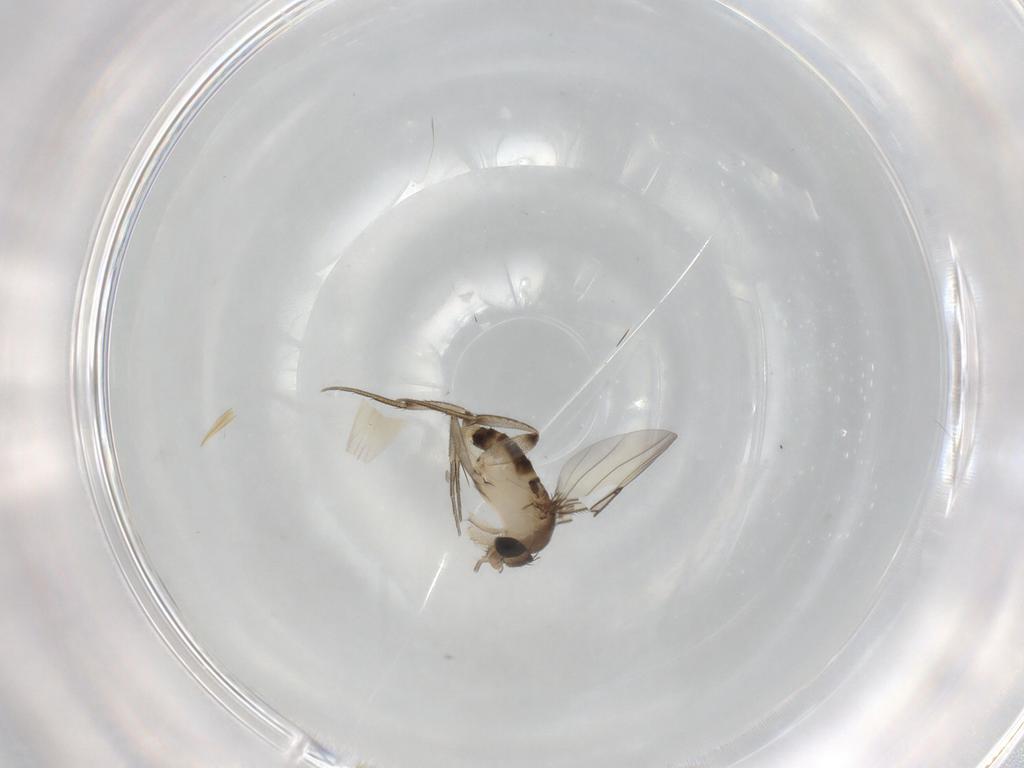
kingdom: Animalia
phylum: Arthropoda
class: Insecta
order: Diptera
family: Phoridae
